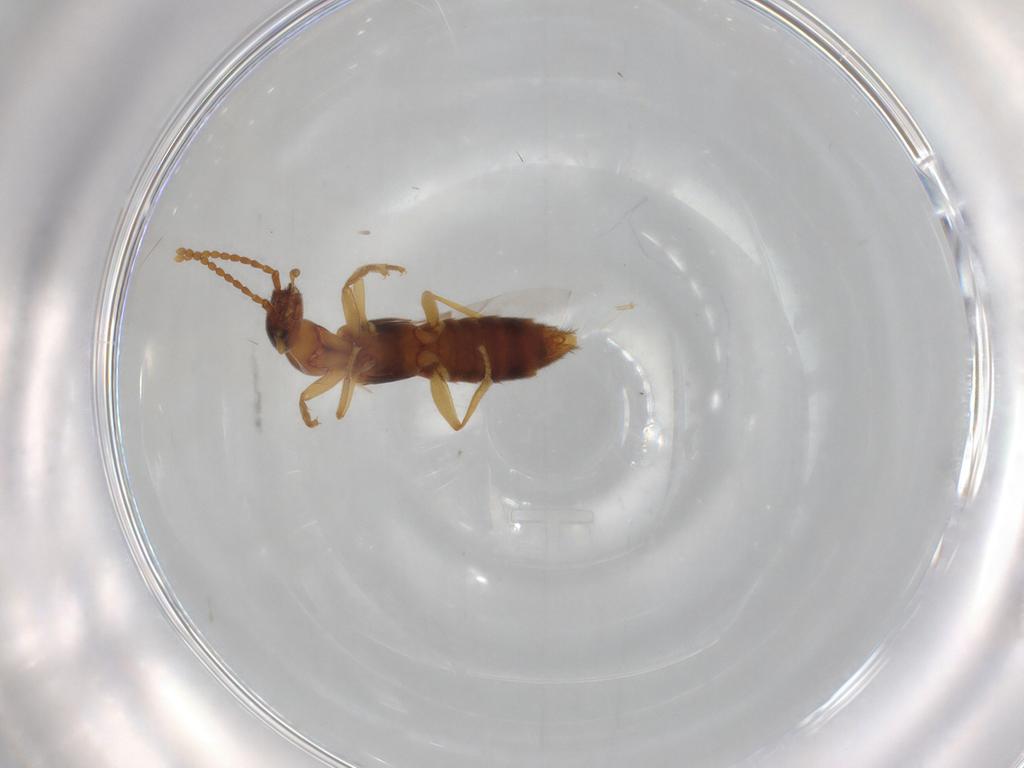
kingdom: Animalia
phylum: Arthropoda
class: Insecta
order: Coleoptera
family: Staphylinidae
